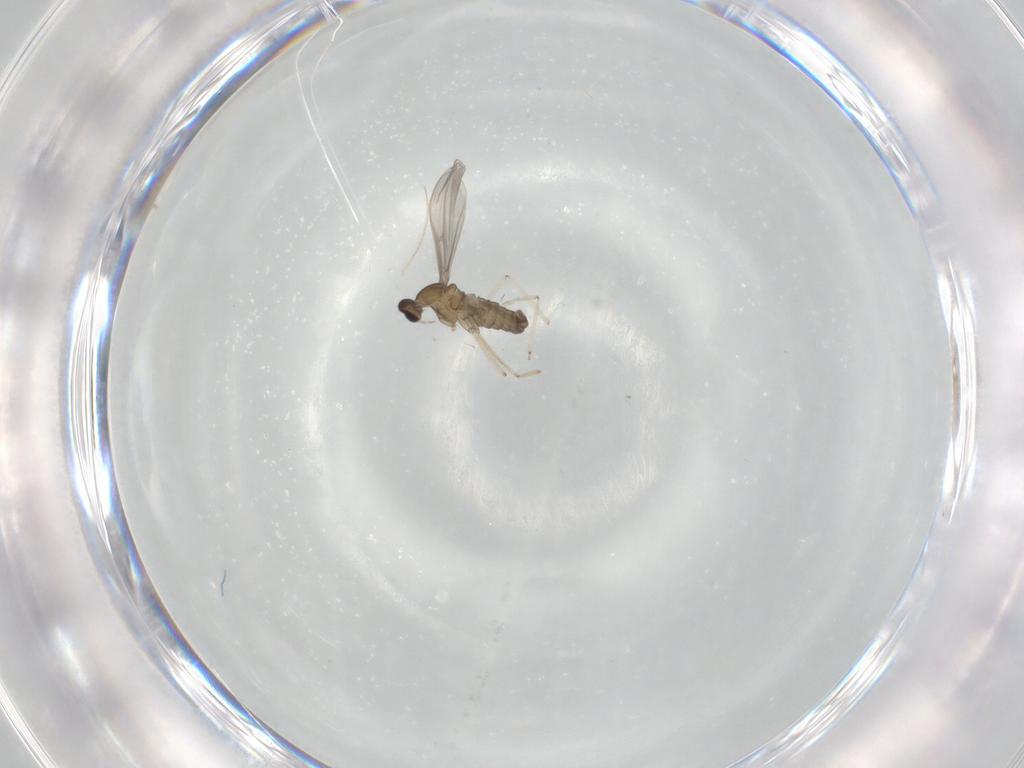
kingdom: Animalia
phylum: Arthropoda
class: Insecta
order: Diptera
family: Cecidomyiidae
